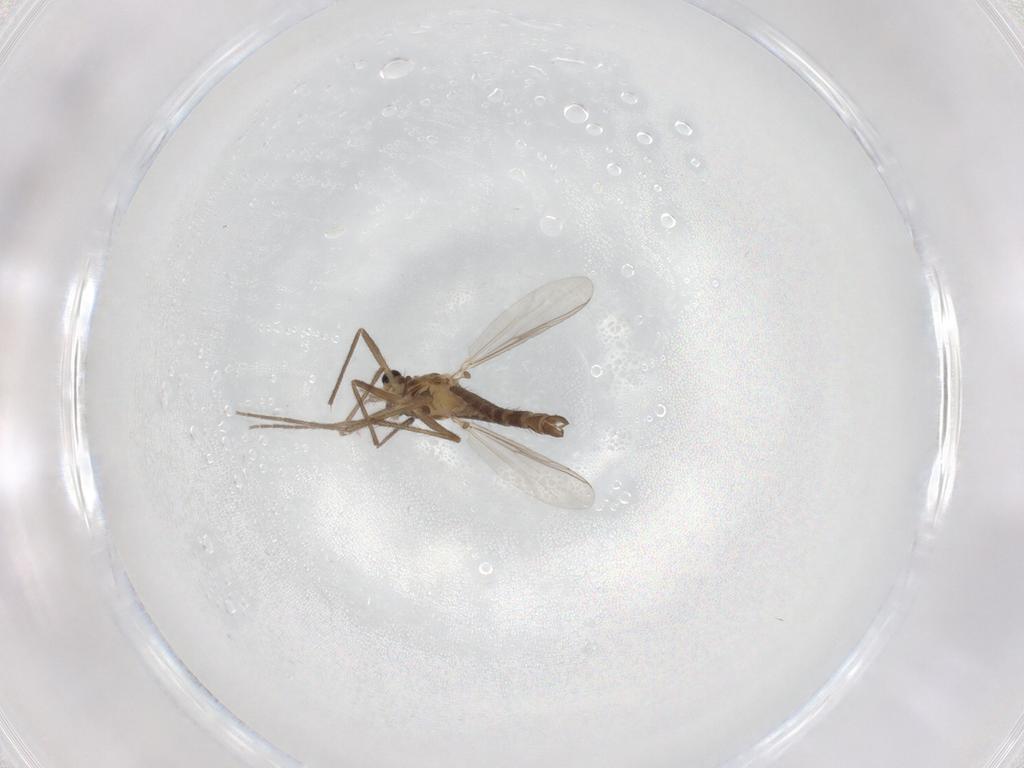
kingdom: Animalia
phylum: Arthropoda
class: Insecta
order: Diptera
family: Chironomidae
